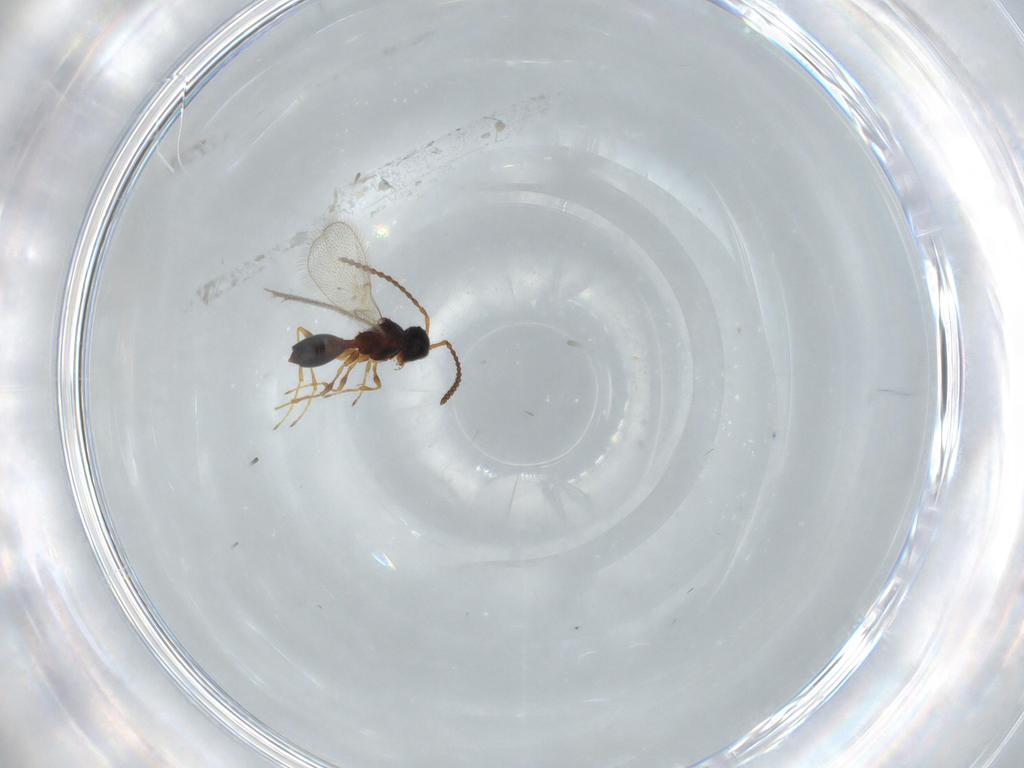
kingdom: Animalia
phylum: Arthropoda
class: Insecta
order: Hymenoptera
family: Diapriidae
